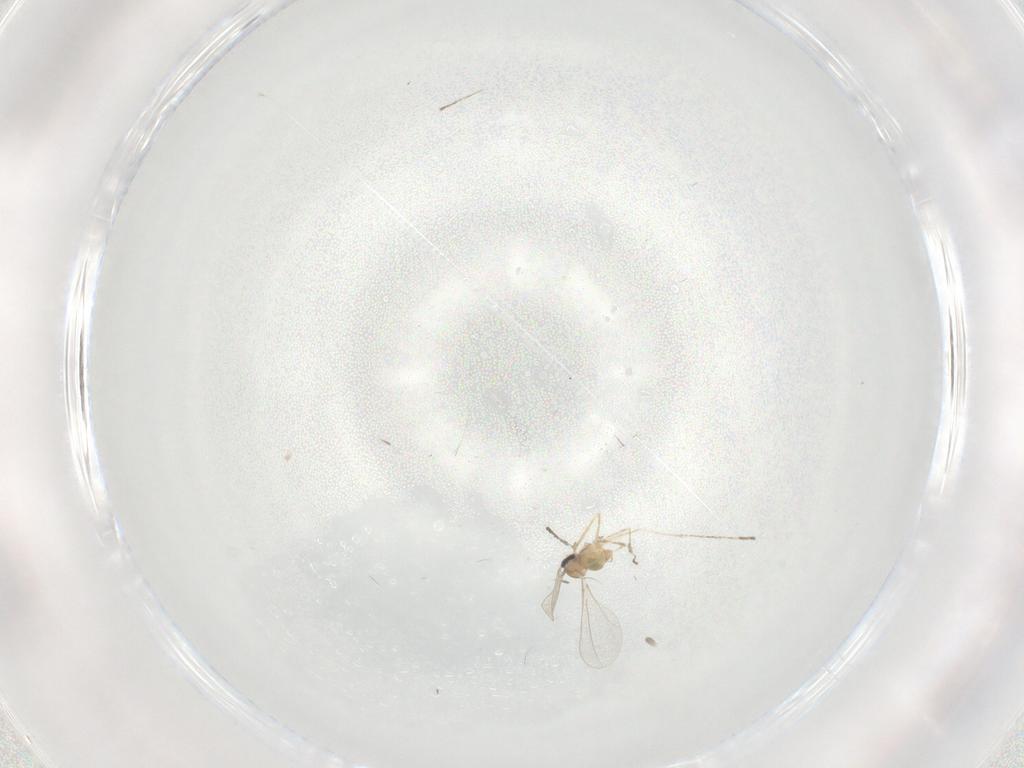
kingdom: Animalia
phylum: Arthropoda
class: Insecta
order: Diptera
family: Cecidomyiidae
